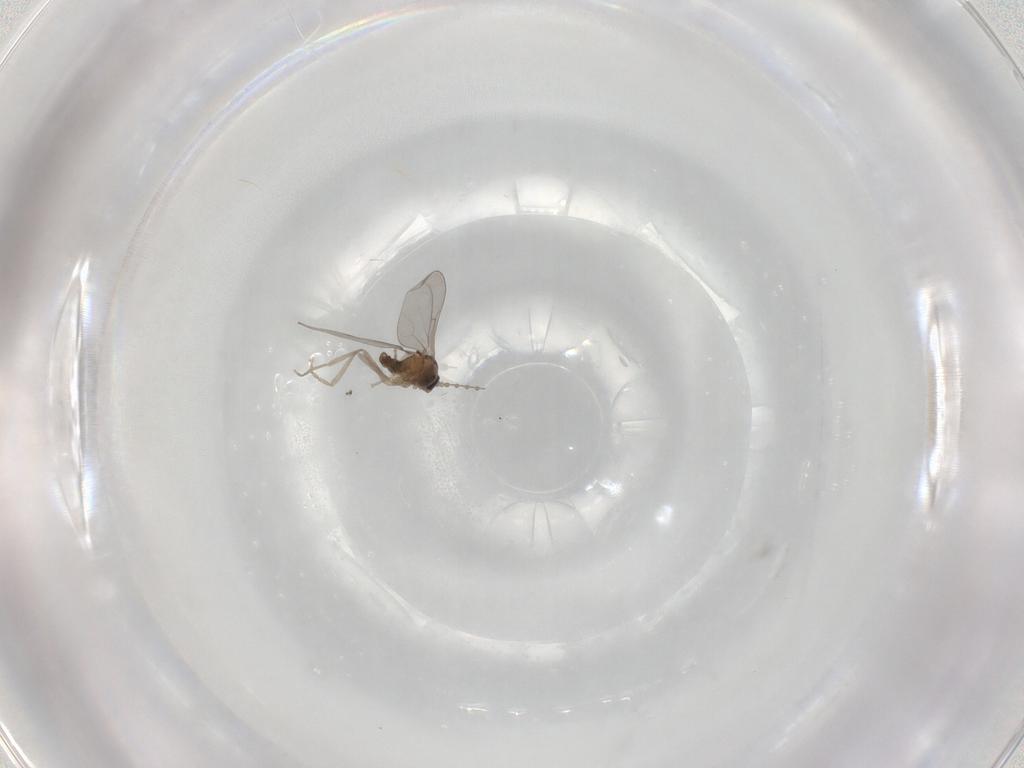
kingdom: Animalia
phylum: Arthropoda
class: Insecta
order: Diptera
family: Cecidomyiidae
